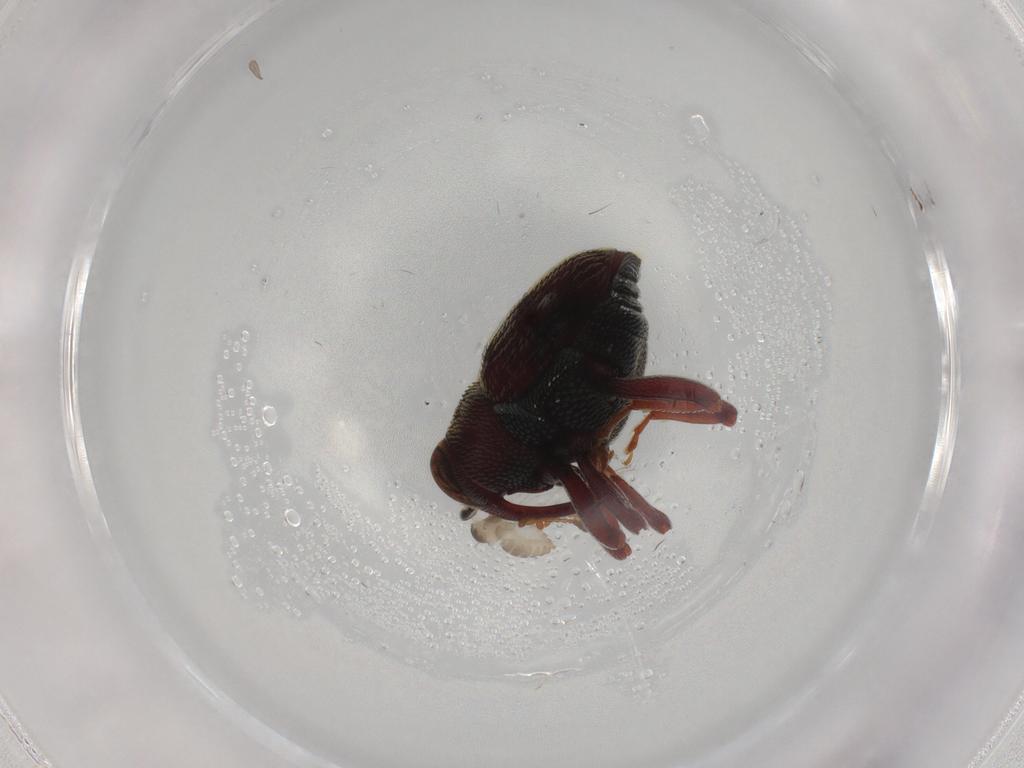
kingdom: Animalia
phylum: Arthropoda
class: Insecta
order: Diptera
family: Cecidomyiidae
